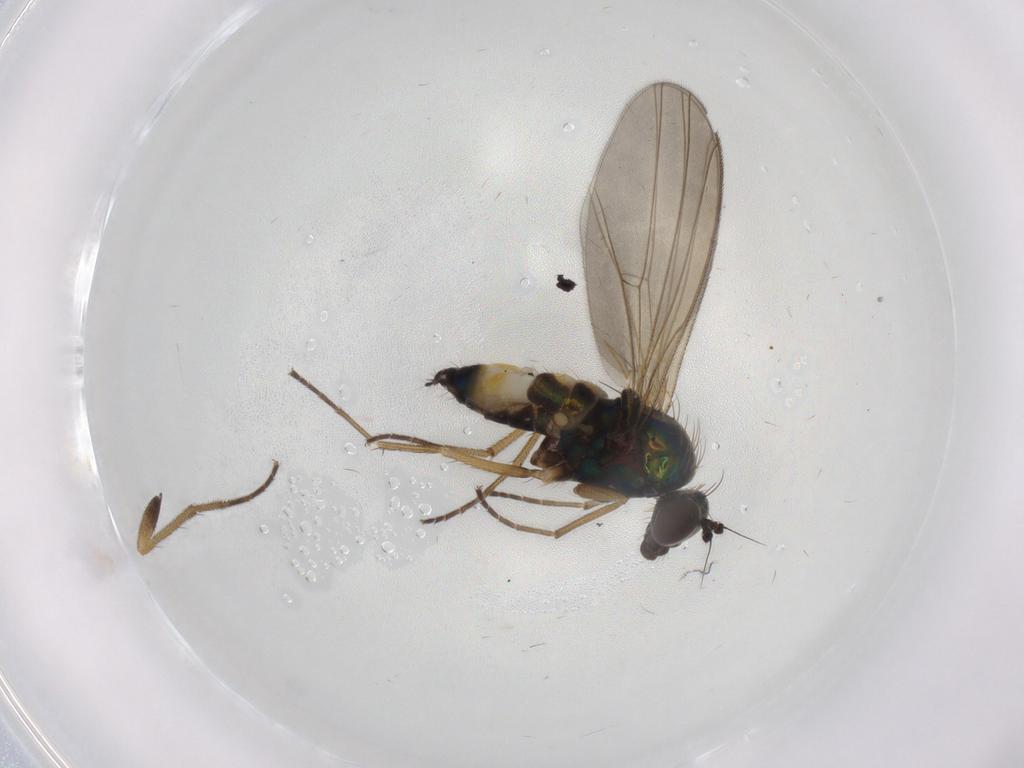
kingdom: Animalia
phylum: Arthropoda
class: Insecta
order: Diptera
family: Dolichopodidae
